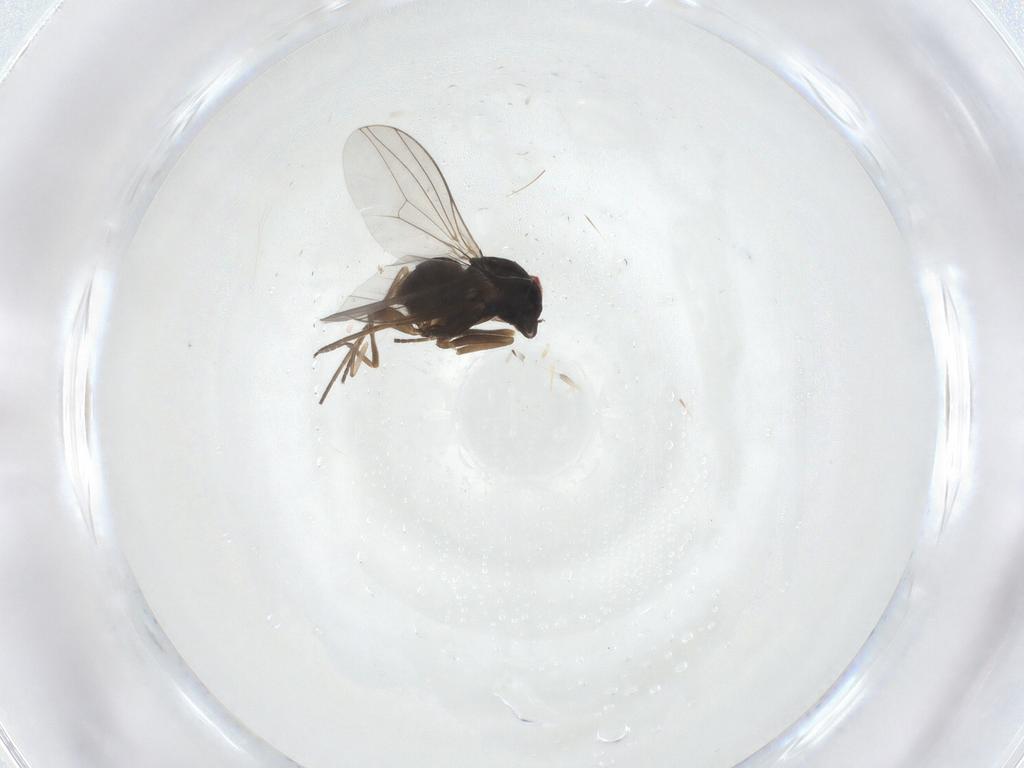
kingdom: Animalia
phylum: Arthropoda
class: Insecta
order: Diptera
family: Dolichopodidae
